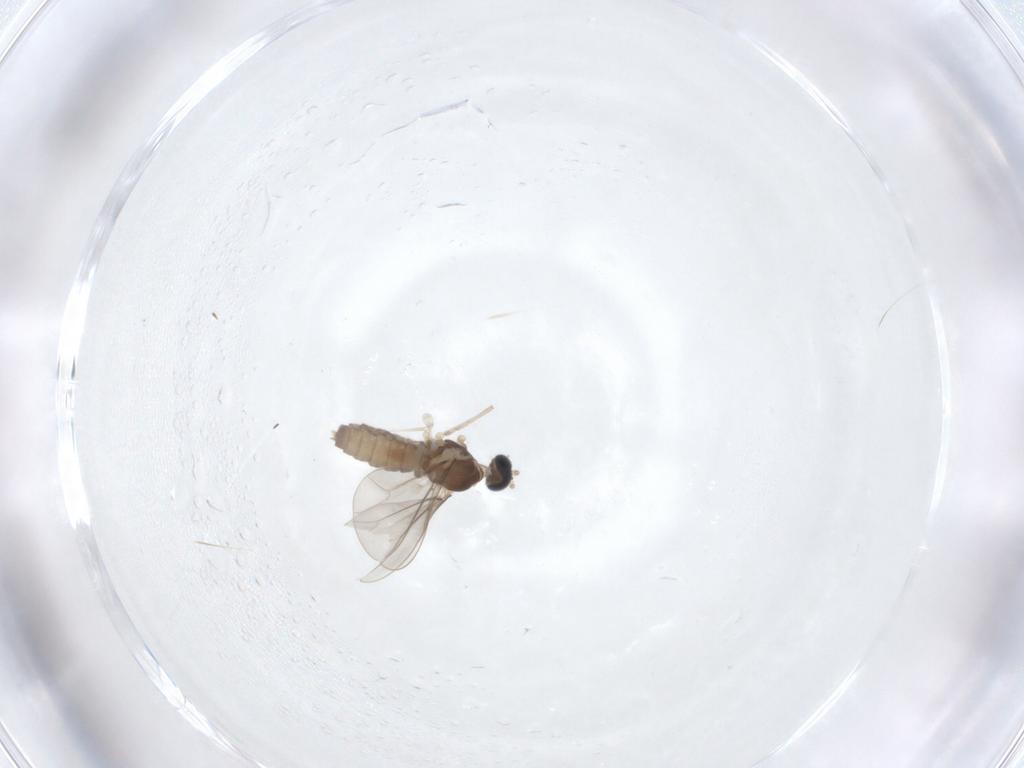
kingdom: Animalia
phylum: Arthropoda
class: Insecta
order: Diptera
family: Cecidomyiidae
